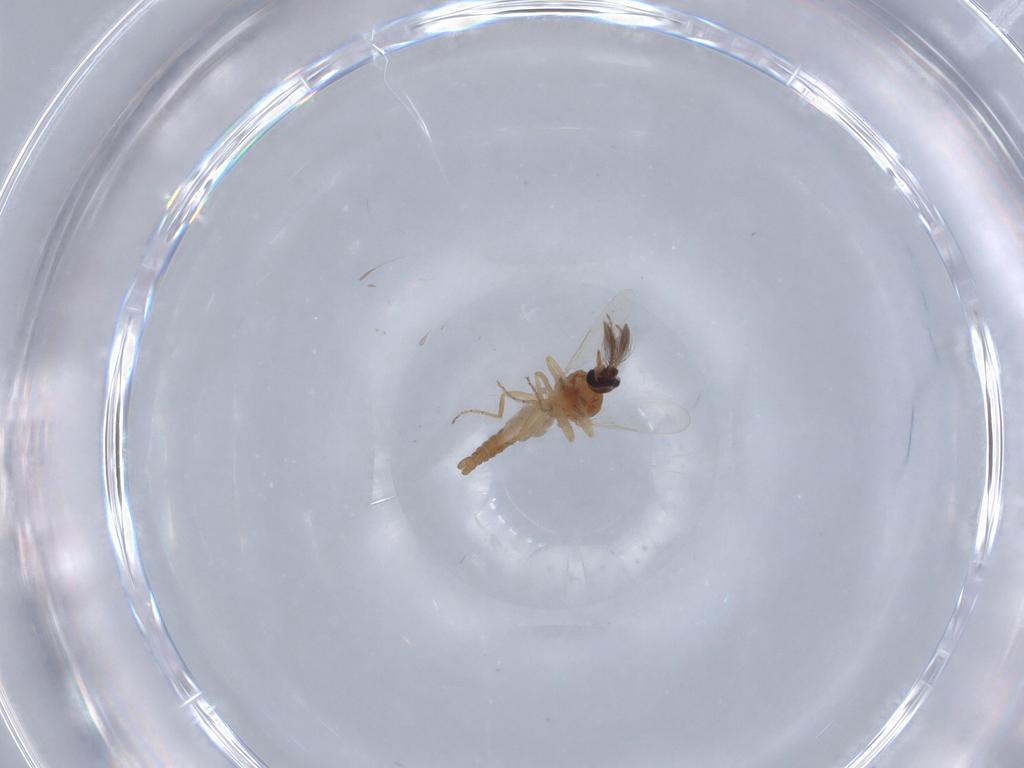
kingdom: Animalia
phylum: Arthropoda
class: Insecta
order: Diptera
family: Ceratopogonidae
